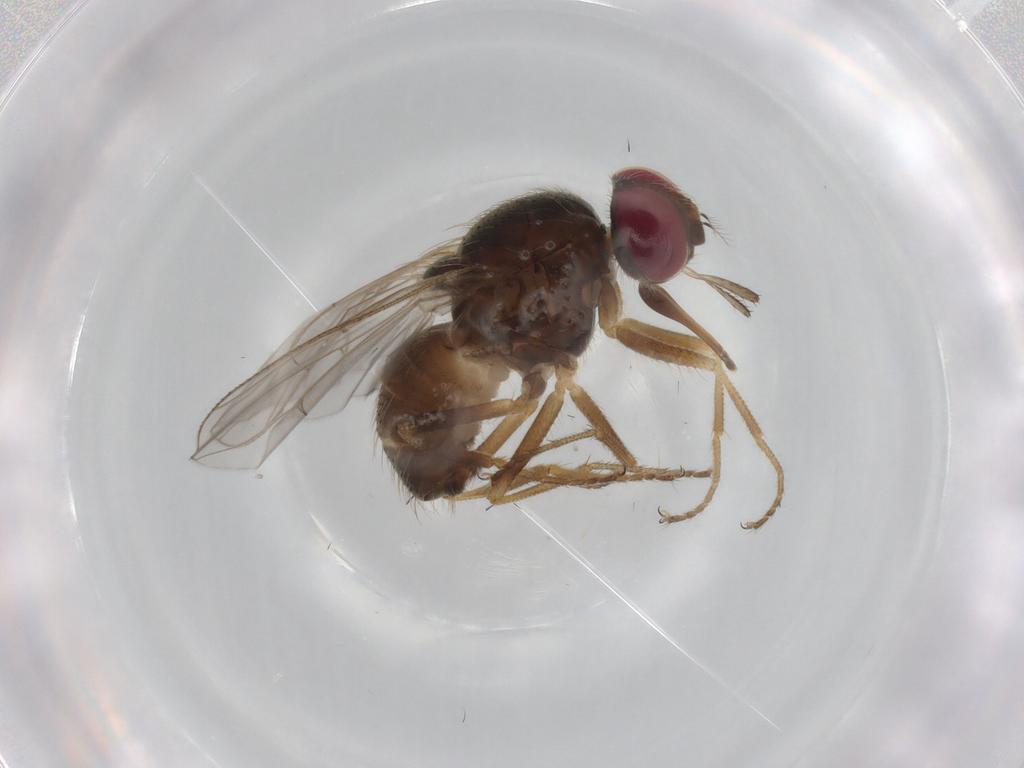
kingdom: Animalia
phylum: Arthropoda
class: Insecta
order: Diptera
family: Muscidae
